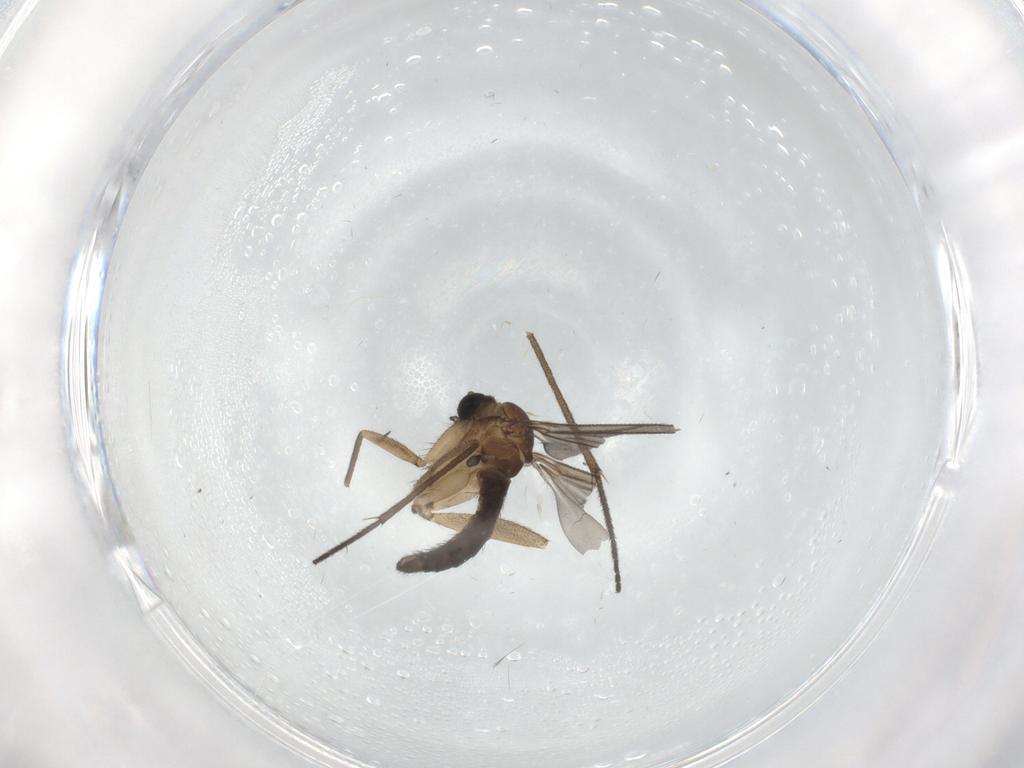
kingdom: Animalia
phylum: Arthropoda
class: Insecta
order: Diptera
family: Sciaridae
